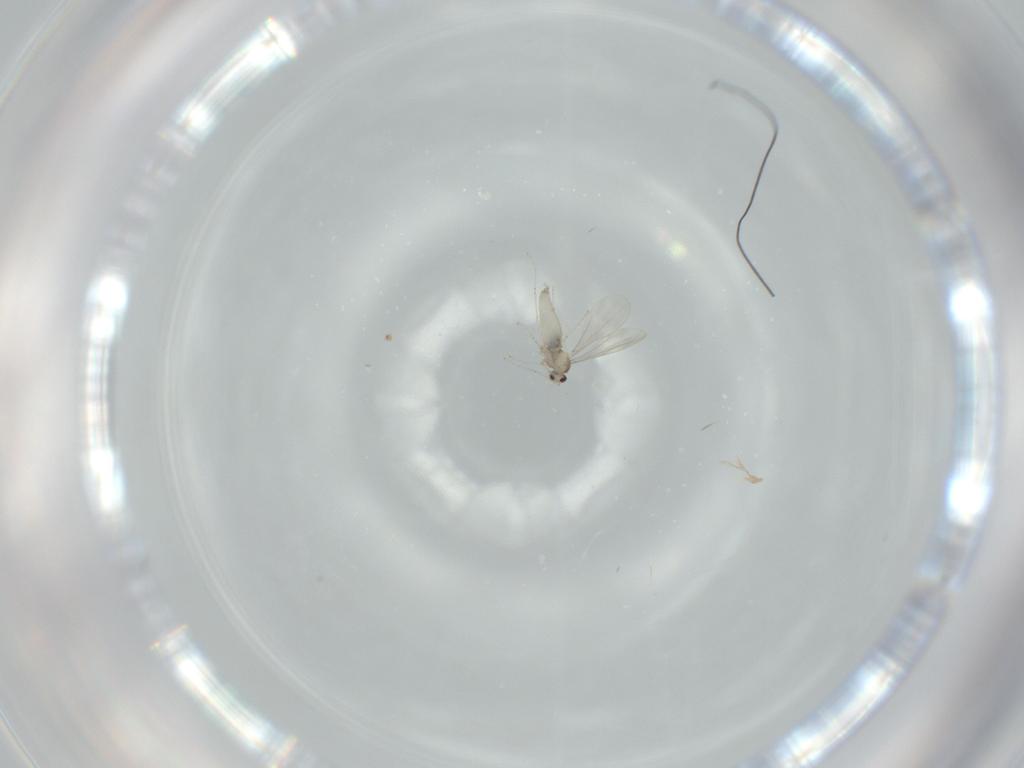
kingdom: Animalia
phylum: Arthropoda
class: Insecta
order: Diptera
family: Cecidomyiidae
